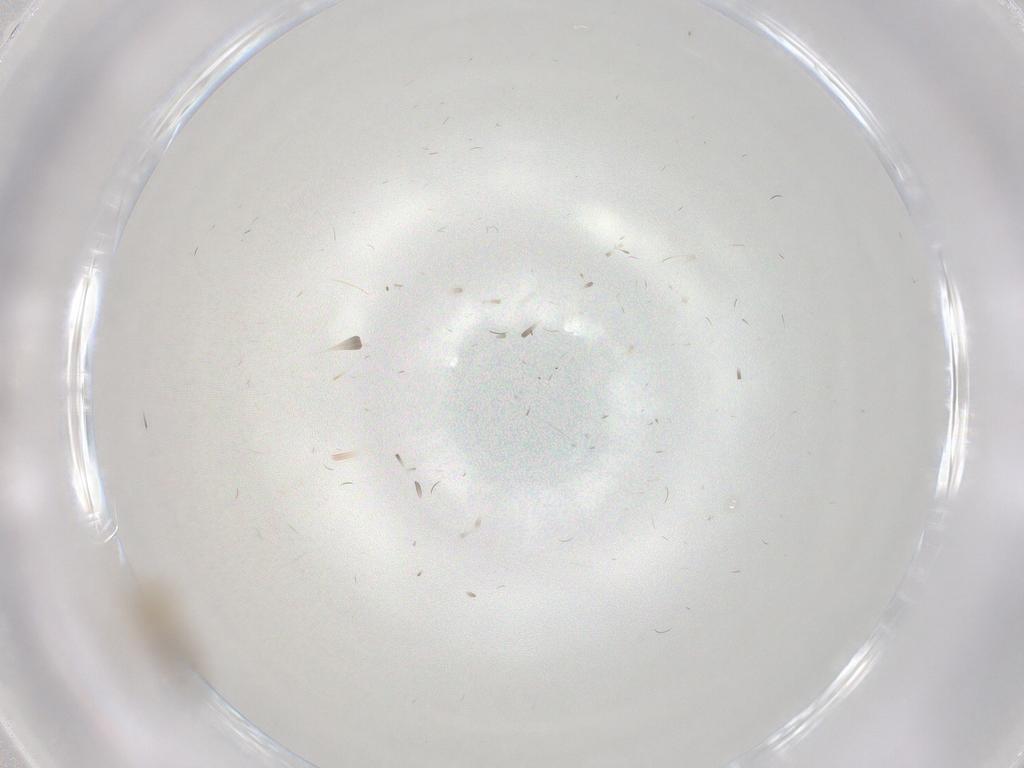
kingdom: Animalia
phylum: Arthropoda
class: Insecta
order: Diptera
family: Cecidomyiidae
